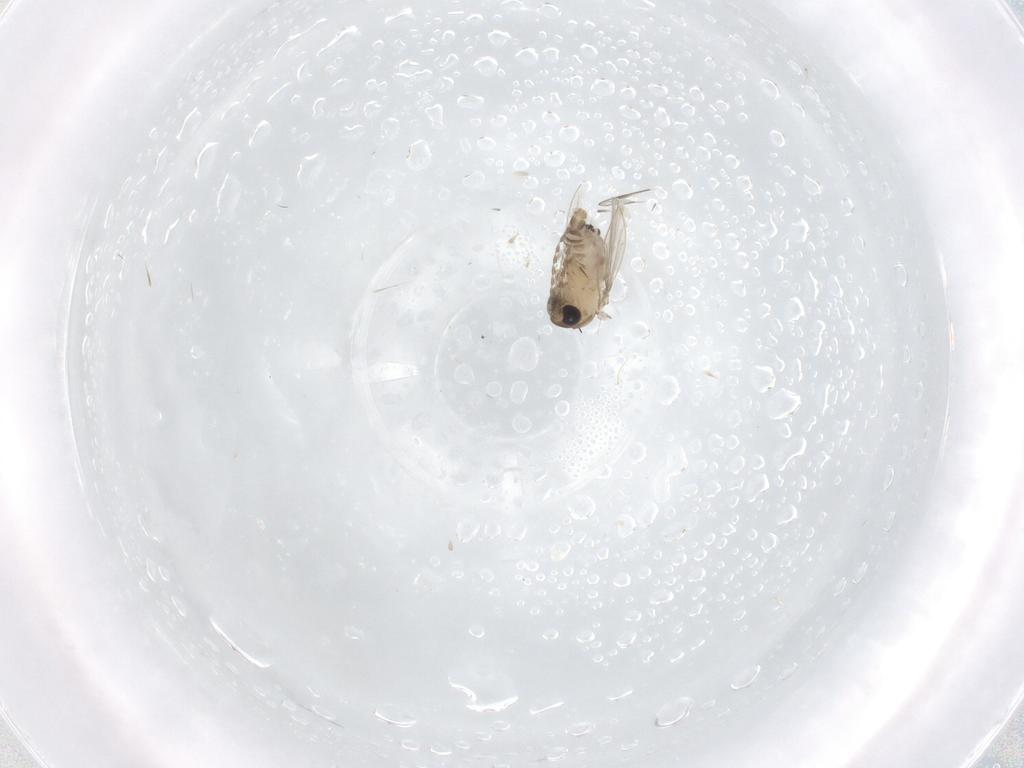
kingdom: Animalia
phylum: Arthropoda
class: Insecta
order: Diptera
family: Psychodidae
